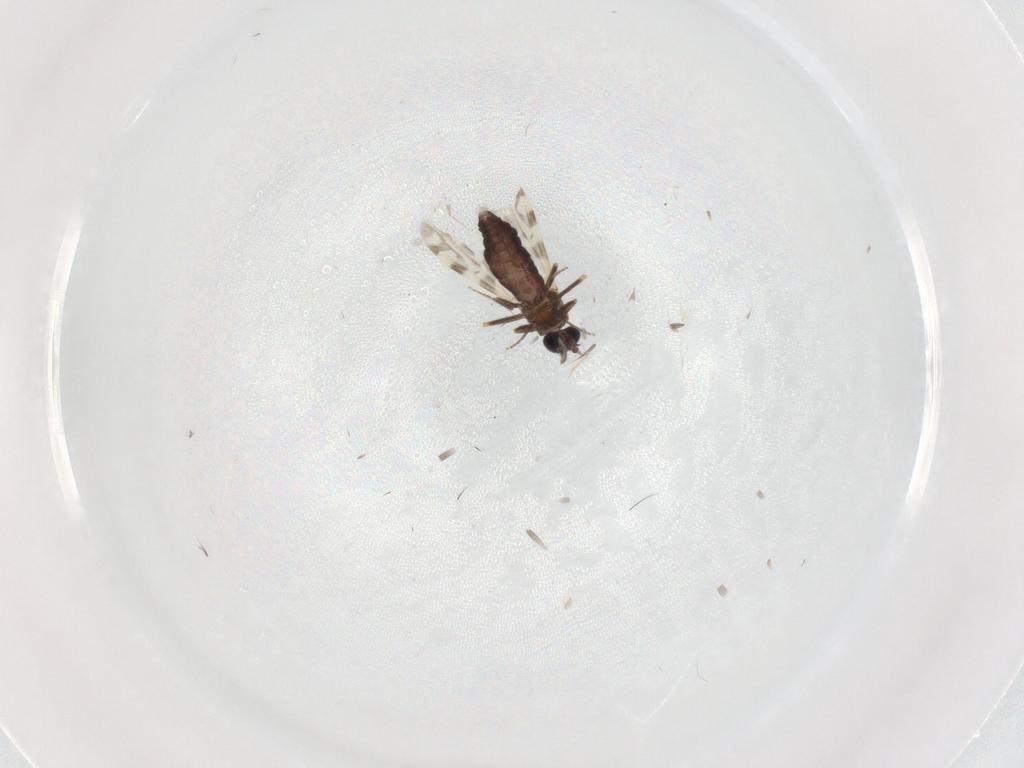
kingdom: Animalia
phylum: Arthropoda
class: Insecta
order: Diptera
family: Ceratopogonidae
